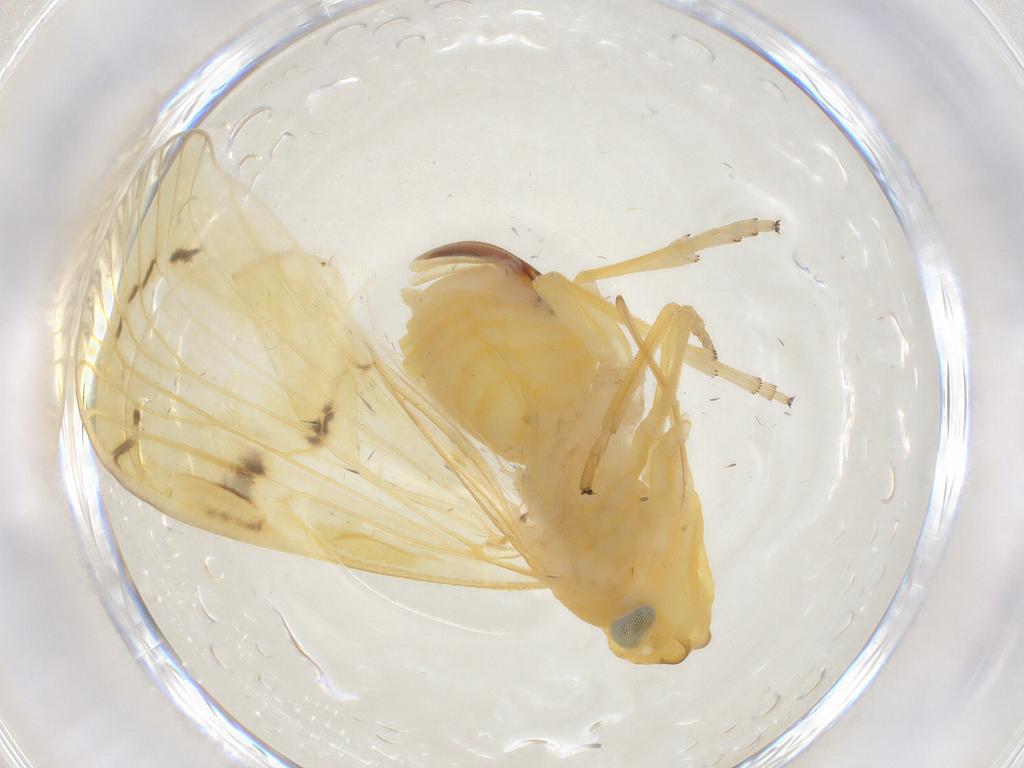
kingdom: Animalia
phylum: Arthropoda
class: Insecta
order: Hemiptera
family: Cixiidae
